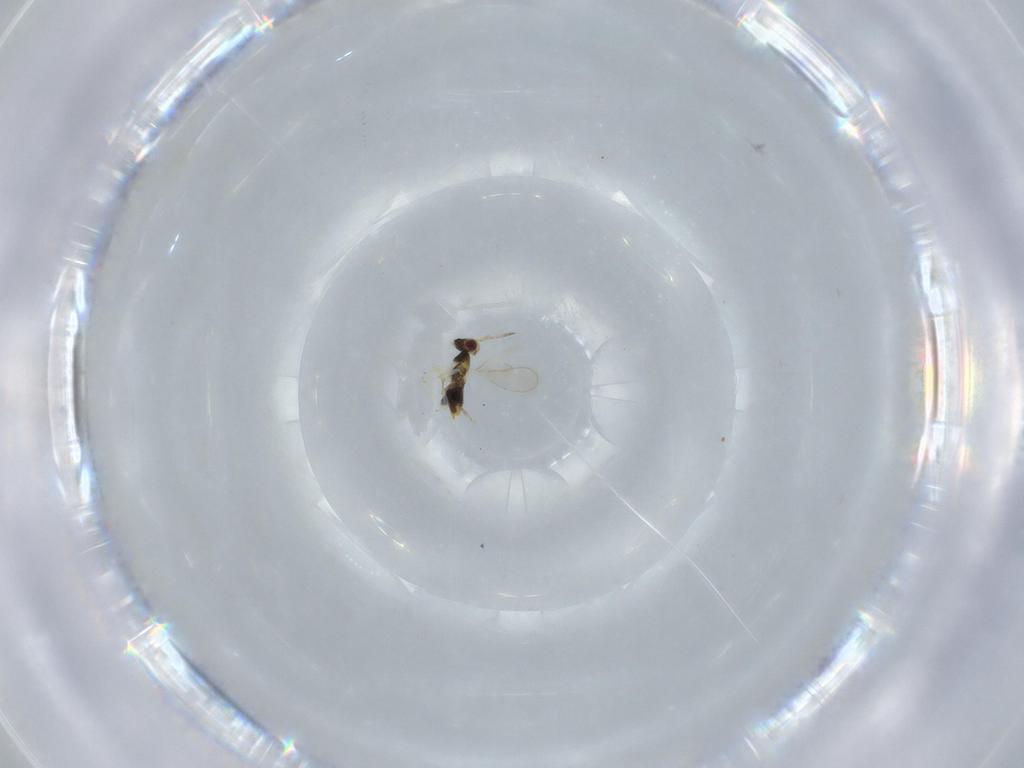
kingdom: Animalia
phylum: Arthropoda
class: Insecta
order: Hymenoptera
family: Aphelinidae
